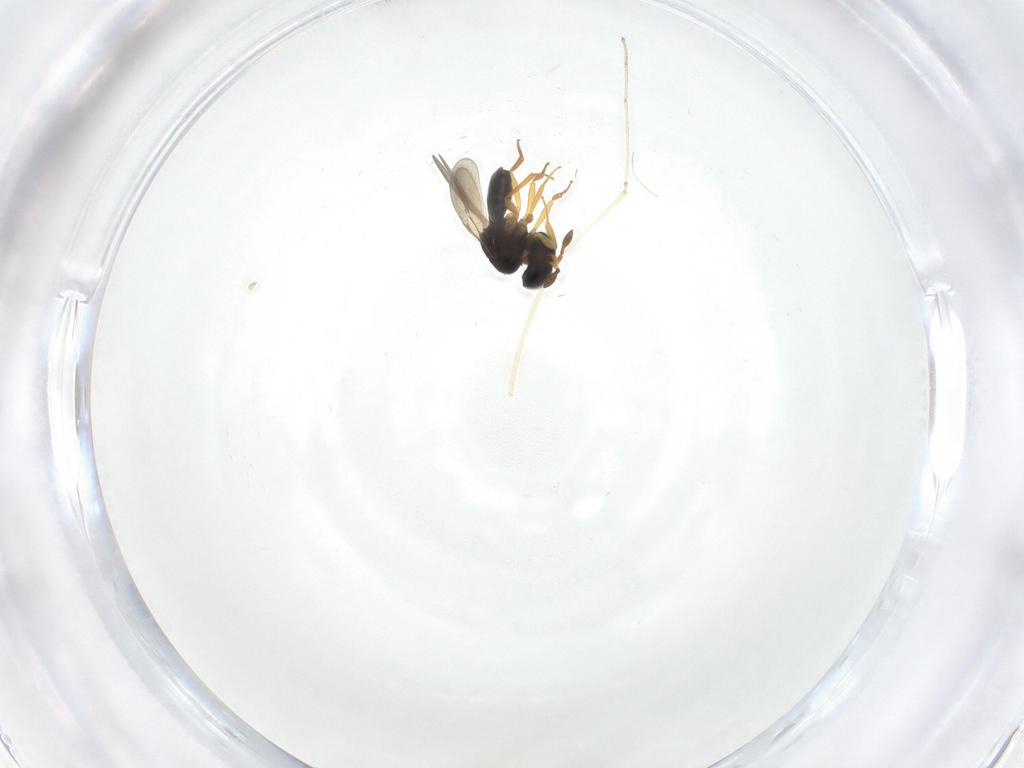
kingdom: Animalia
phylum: Arthropoda
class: Insecta
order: Hymenoptera
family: Scelionidae
